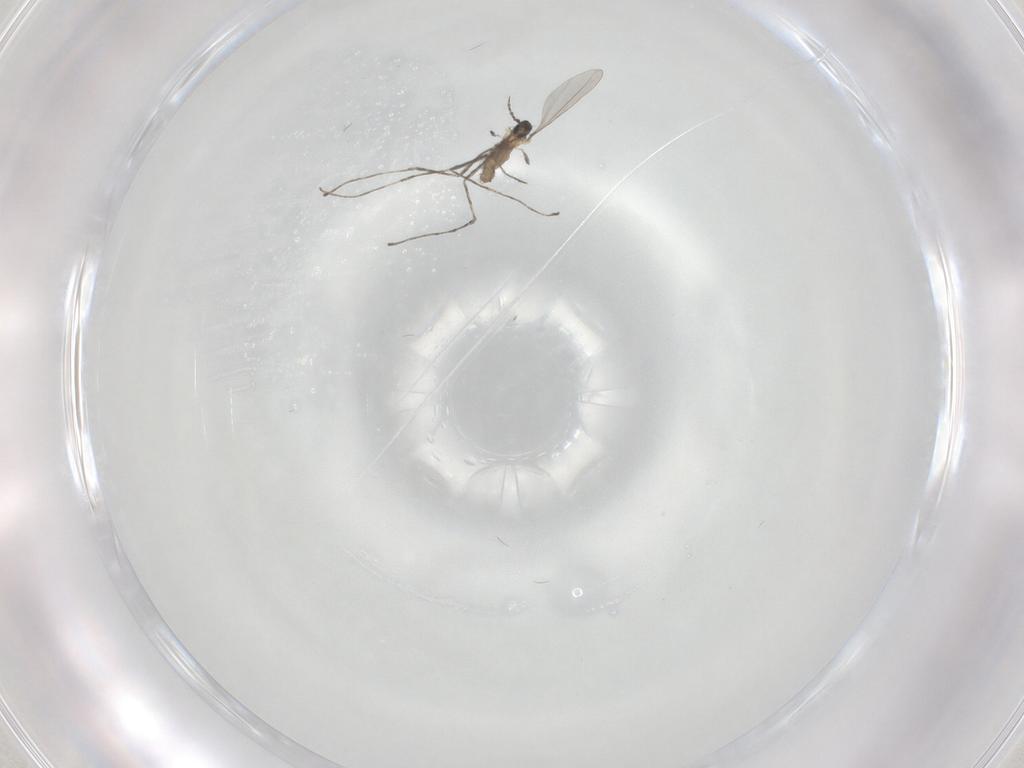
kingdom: Animalia
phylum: Arthropoda
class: Insecta
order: Diptera
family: Cecidomyiidae
